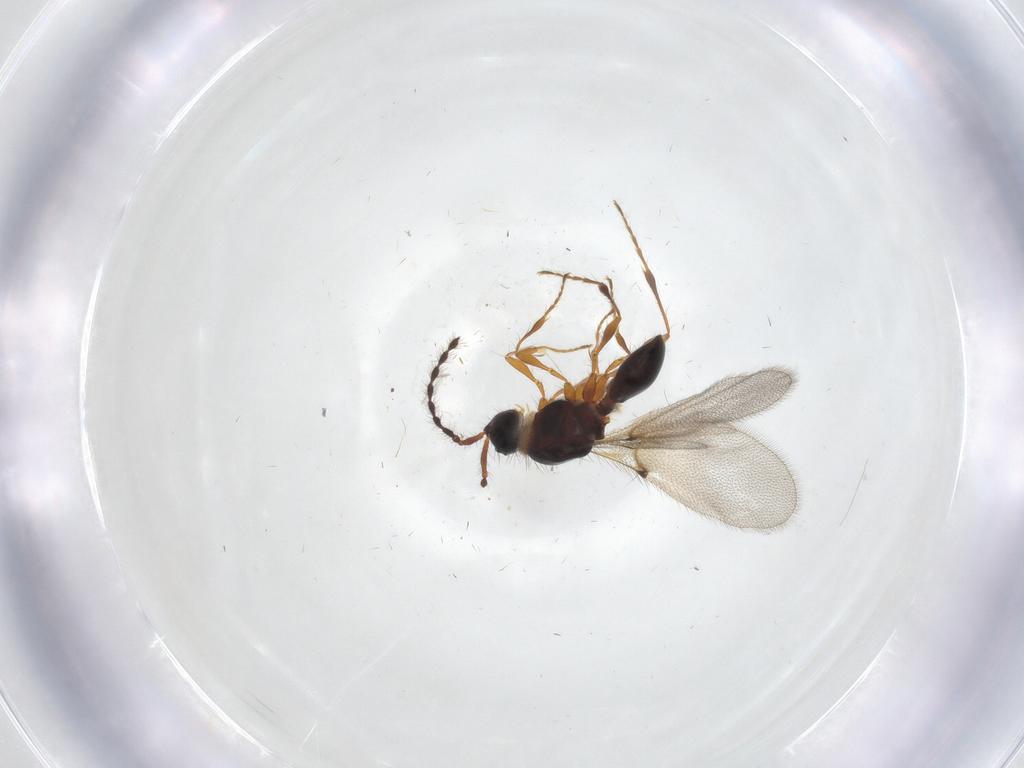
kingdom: Animalia
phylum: Arthropoda
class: Insecta
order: Hymenoptera
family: Diapriidae
